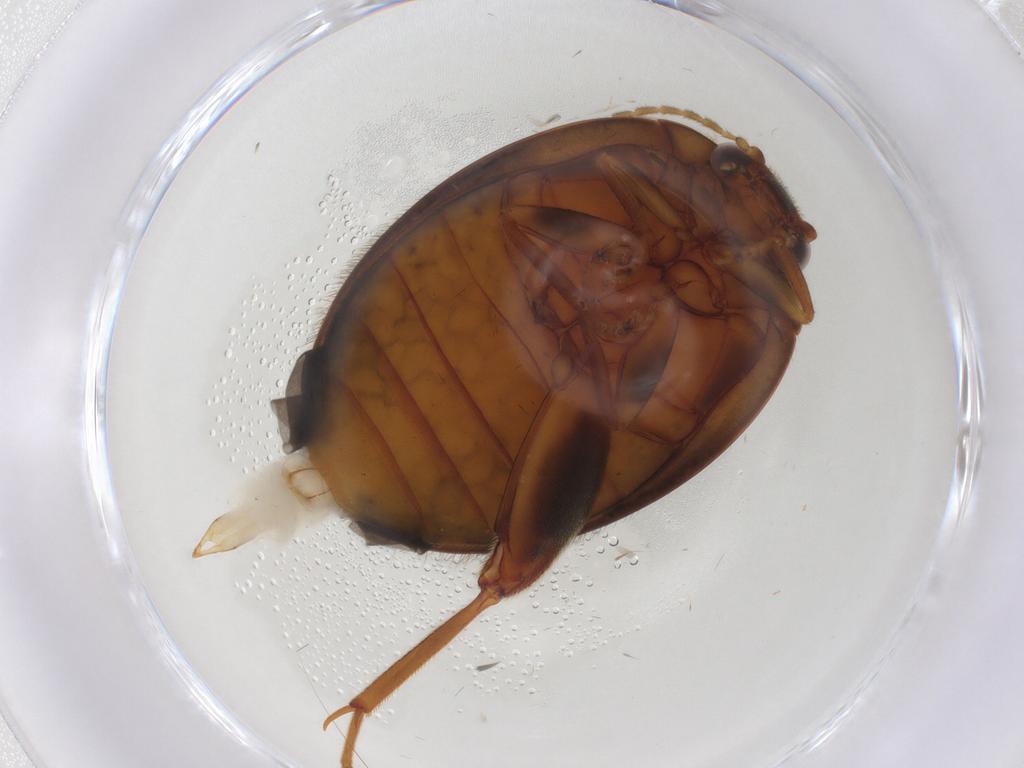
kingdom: Animalia
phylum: Arthropoda
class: Insecta
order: Coleoptera
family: Scirtidae
